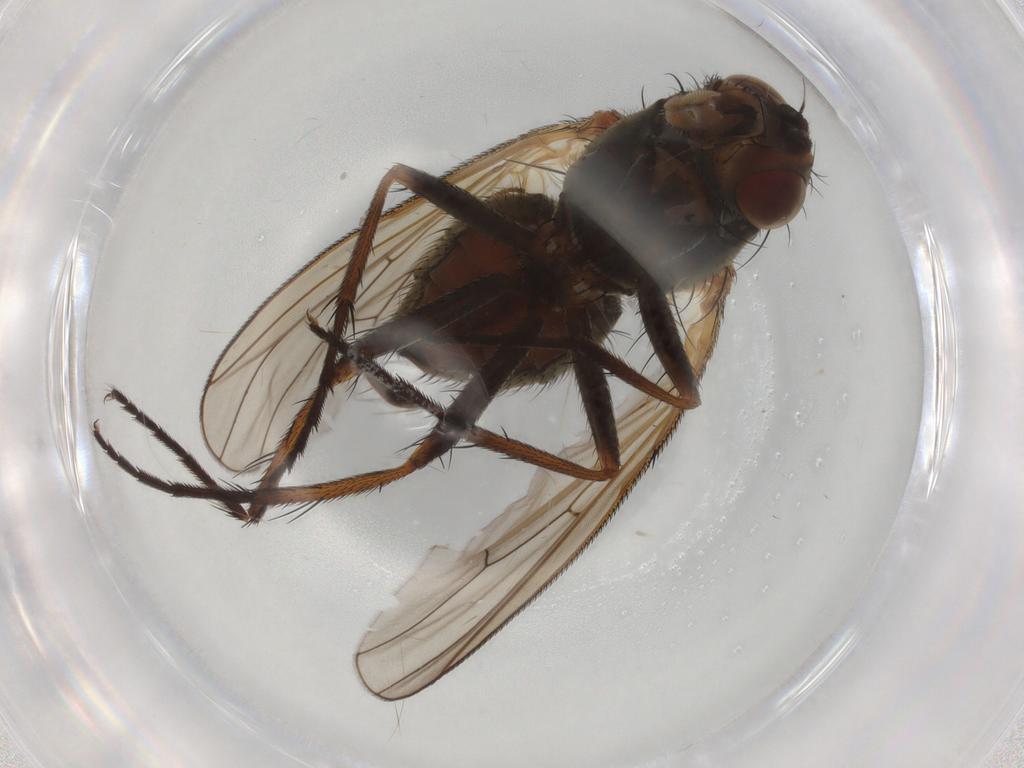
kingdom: Animalia
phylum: Arthropoda
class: Insecta
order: Diptera
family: Anthomyiidae
